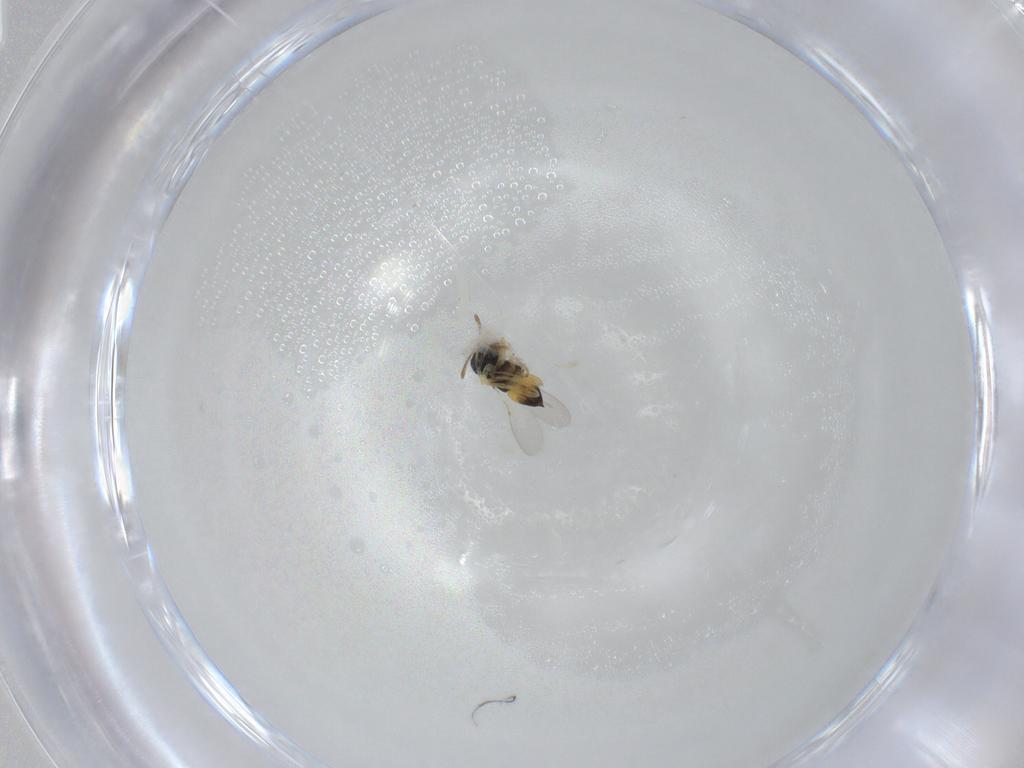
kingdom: Animalia
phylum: Arthropoda
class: Insecta
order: Hymenoptera
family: Encyrtidae
